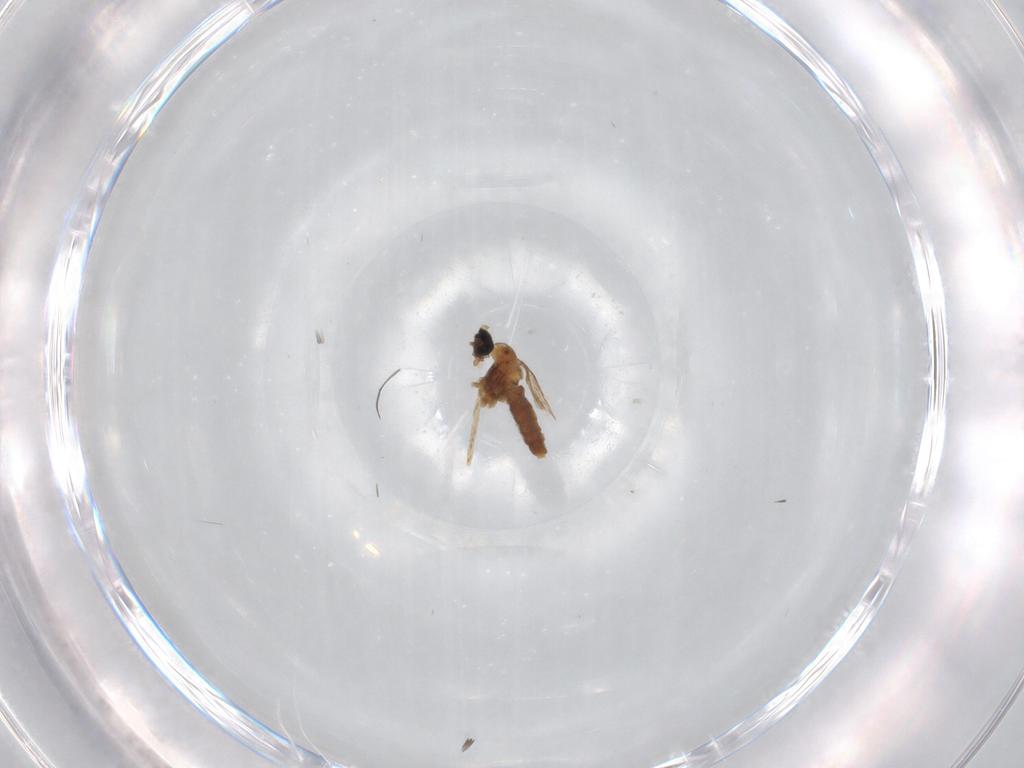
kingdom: Animalia
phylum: Arthropoda
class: Insecta
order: Diptera
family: Cecidomyiidae
